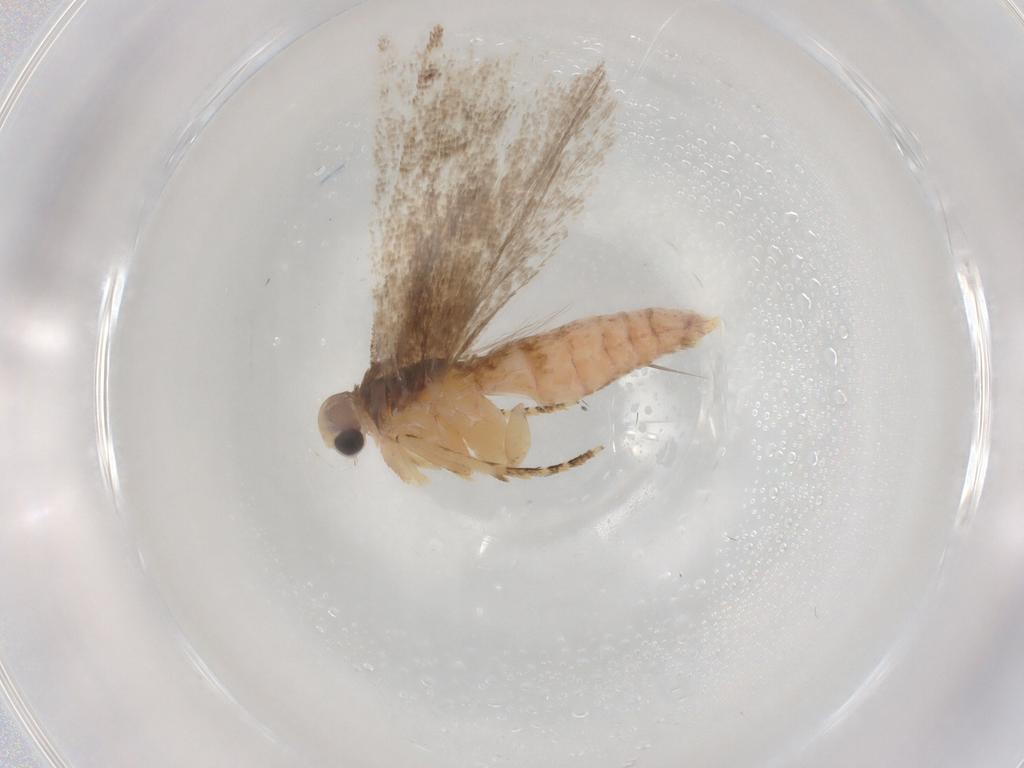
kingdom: Animalia
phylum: Arthropoda
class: Insecta
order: Lepidoptera
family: Gelechiidae
